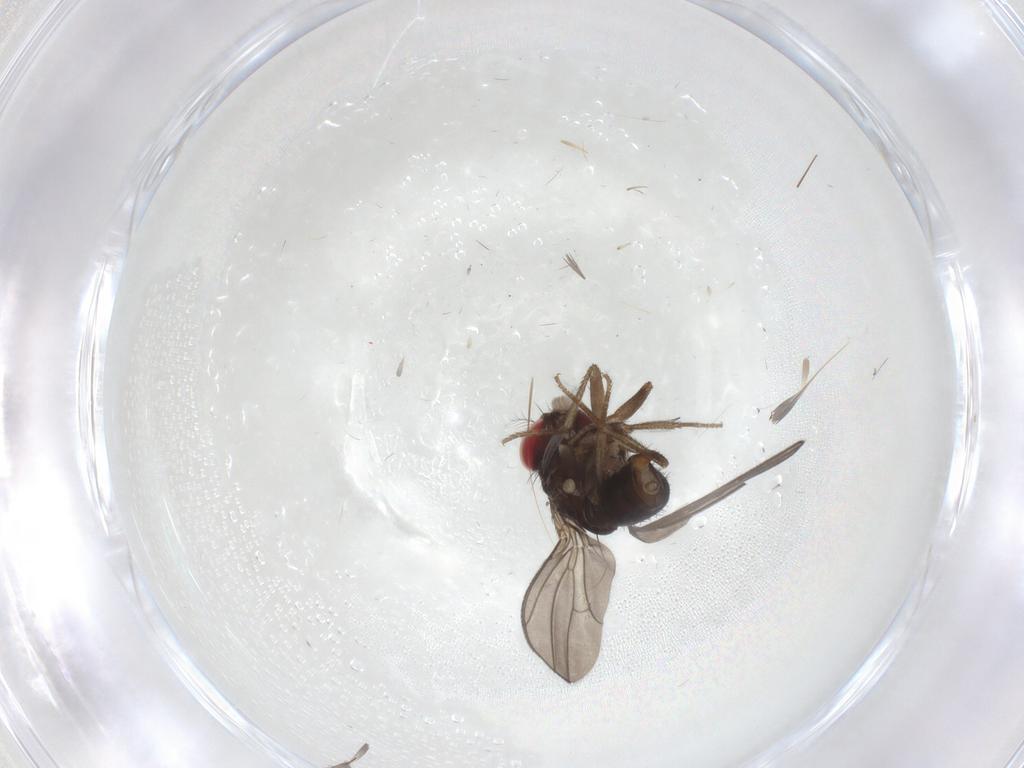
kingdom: Animalia
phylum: Arthropoda
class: Insecta
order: Diptera
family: Drosophilidae
